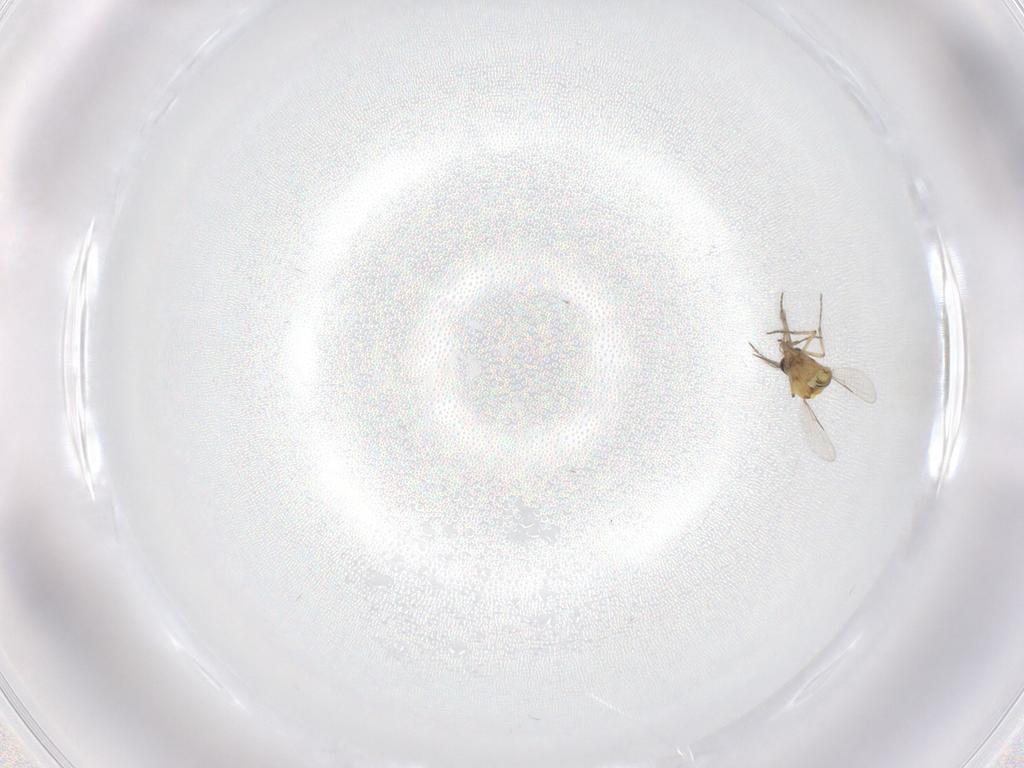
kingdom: Animalia
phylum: Arthropoda
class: Insecta
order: Diptera
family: Ceratopogonidae
